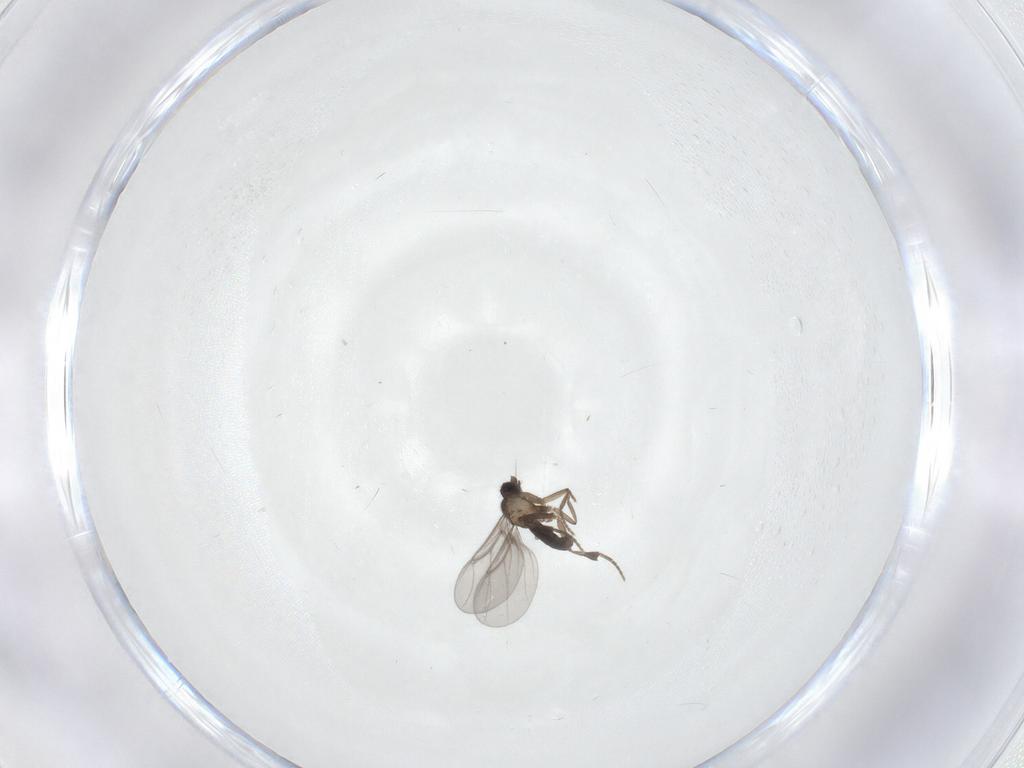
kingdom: Animalia
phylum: Arthropoda
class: Insecta
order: Diptera
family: Phoridae
